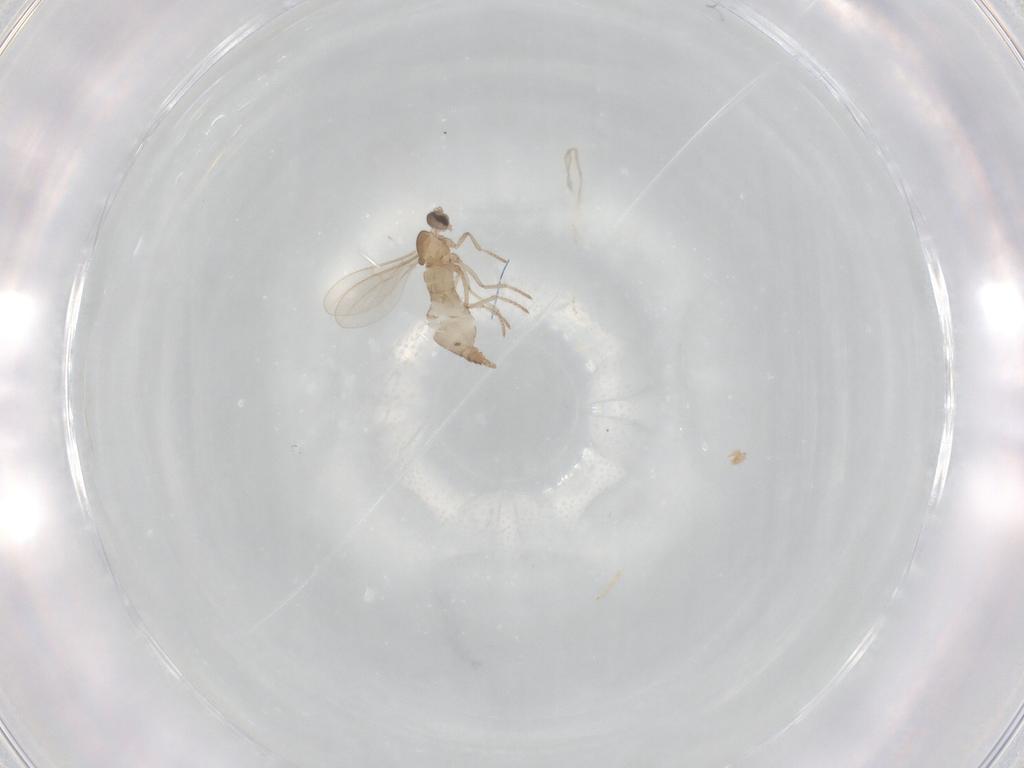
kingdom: Animalia
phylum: Arthropoda
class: Insecta
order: Diptera
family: Cecidomyiidae
